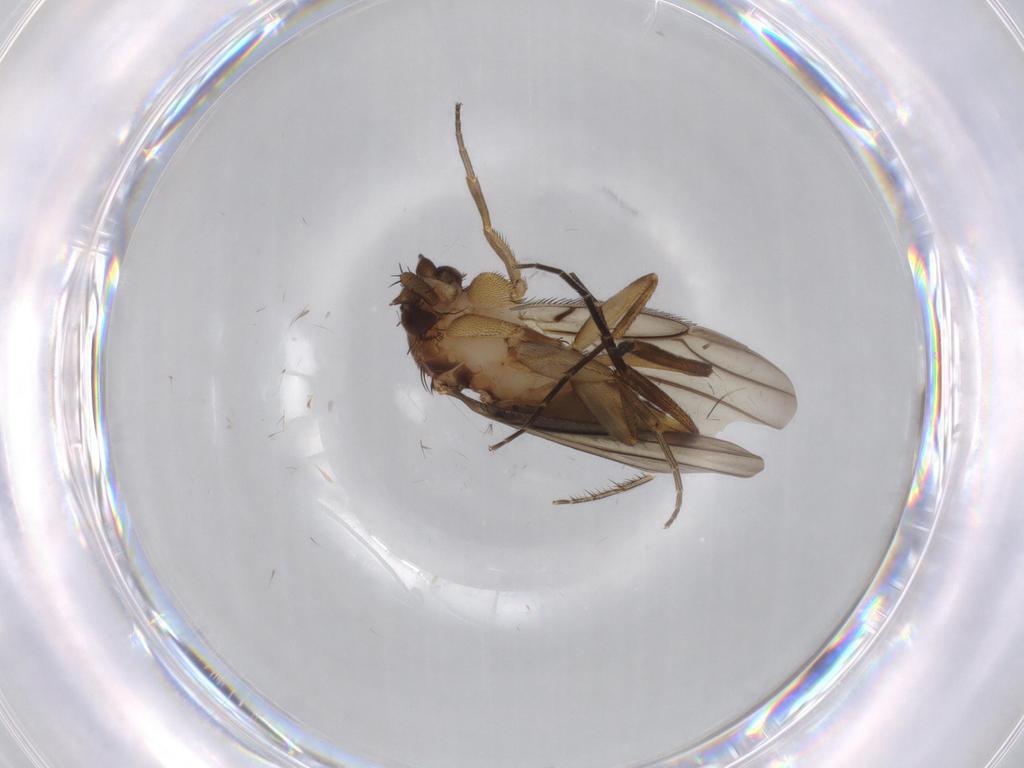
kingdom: Animalia
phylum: Arthropoda
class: Insecta
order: Diptera
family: Phoridae
